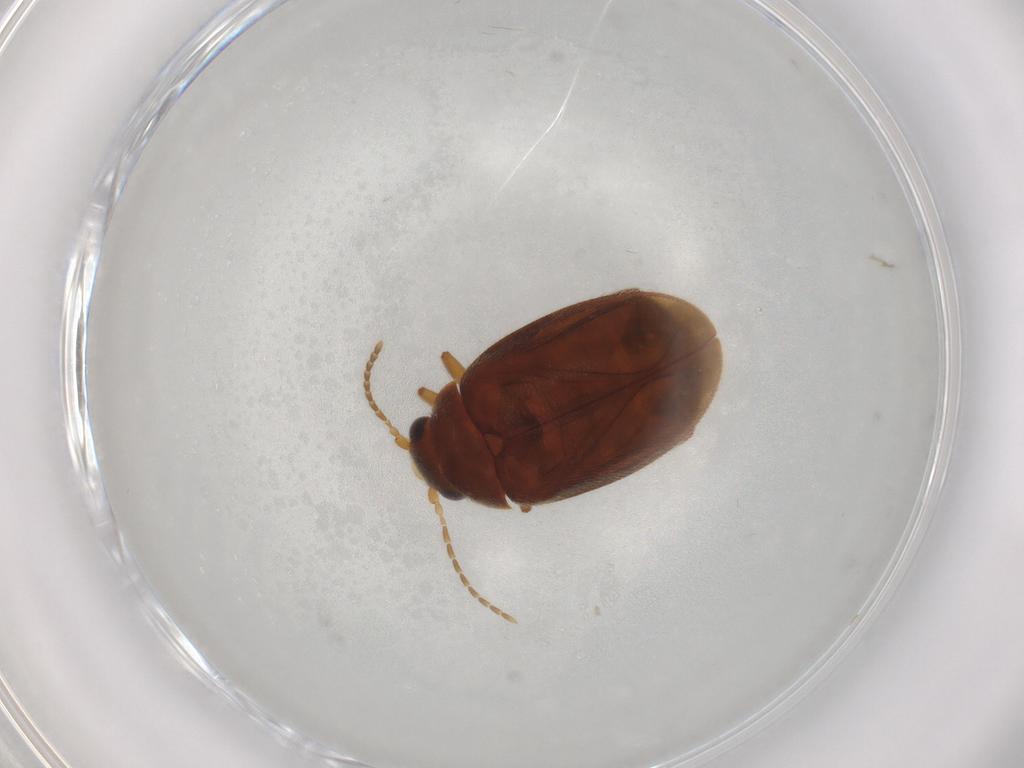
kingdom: Animalia
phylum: Arthropoda
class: Insecta
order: Coleoptera
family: Scirtidae
